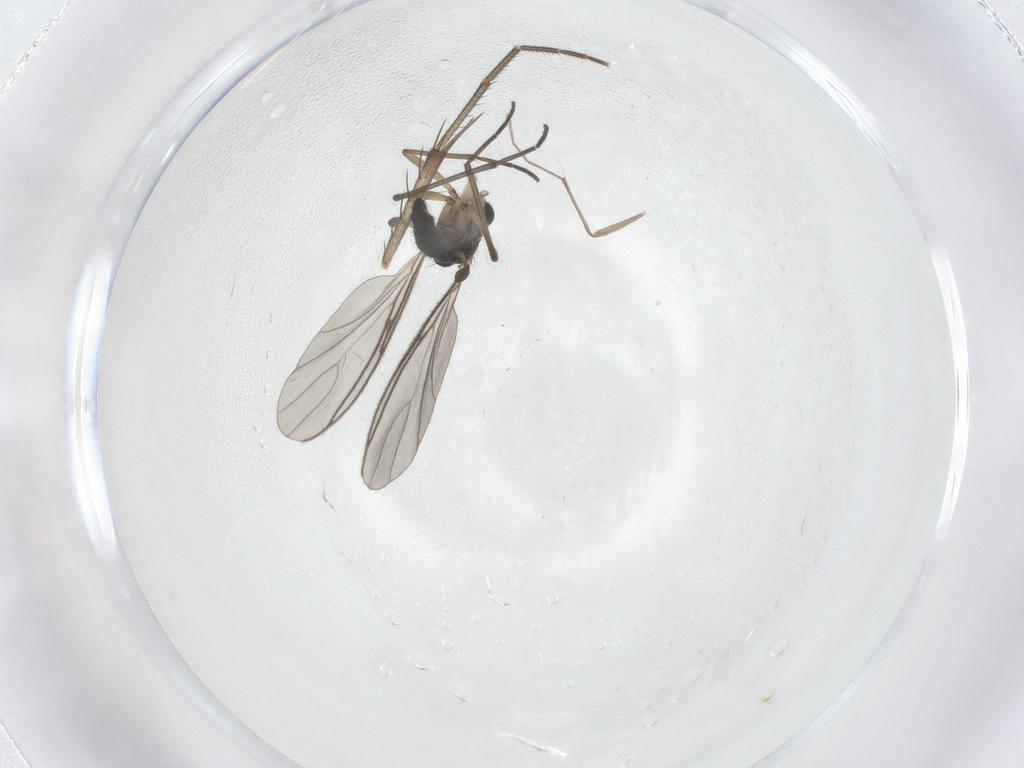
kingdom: Animalia
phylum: Arthropoda
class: Insecta
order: Diptera
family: Sciaridae
